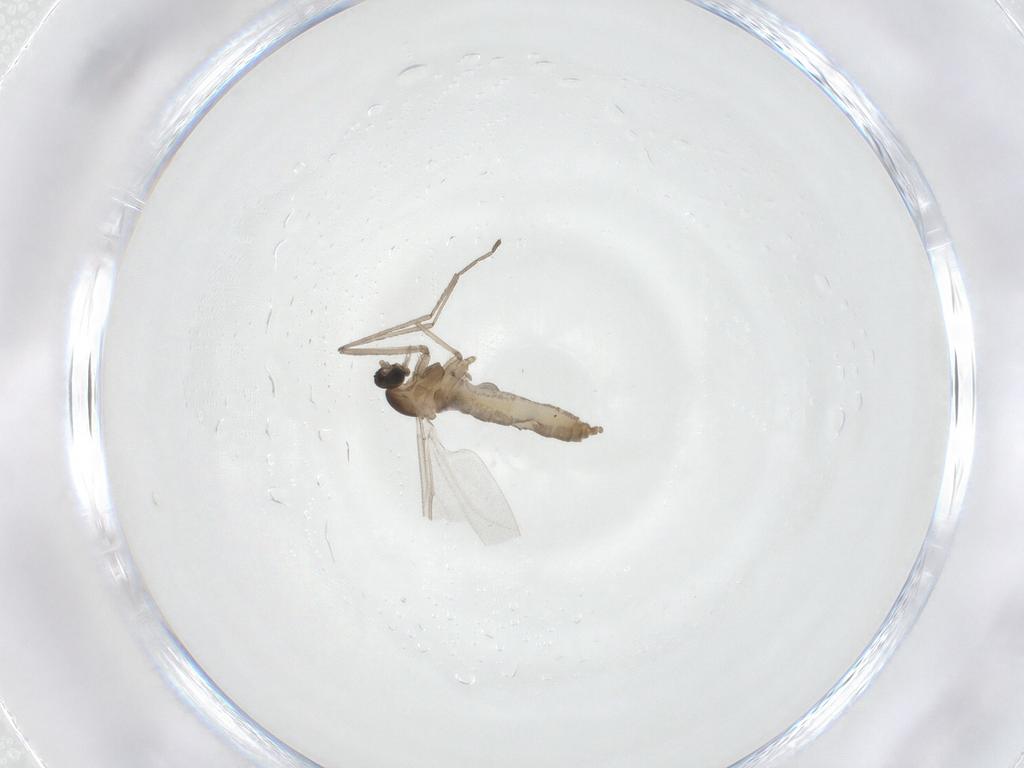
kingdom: Animalia
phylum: Arthropoda
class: Insecta
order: Diptera
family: Cecidomyiidae
